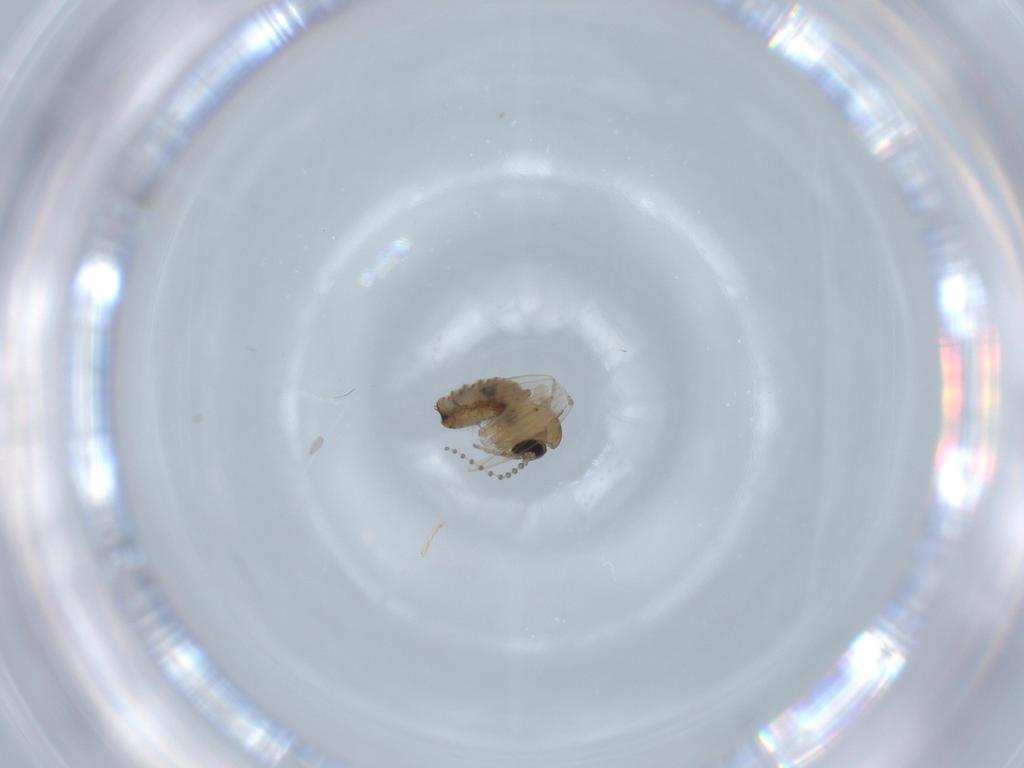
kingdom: Animalia
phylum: Arthropoda
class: Insecta
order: Diptera
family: Psychodidae
